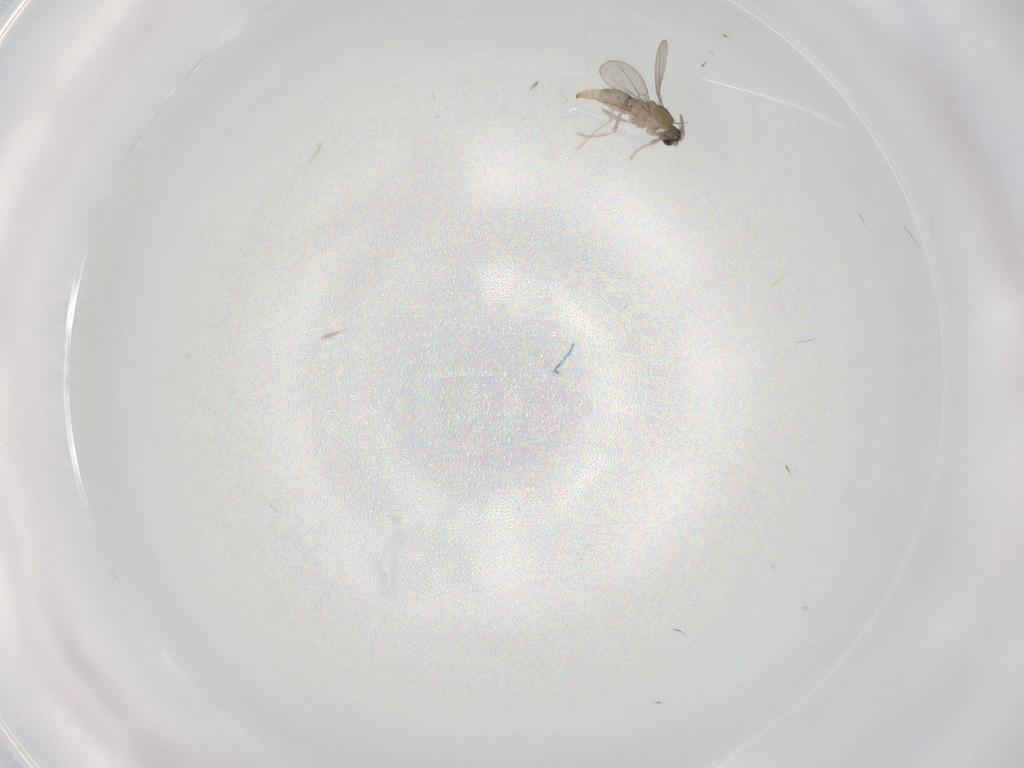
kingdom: Animalia
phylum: Arthropoda
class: Insecta
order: Diptera
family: Cecidomyiidae
